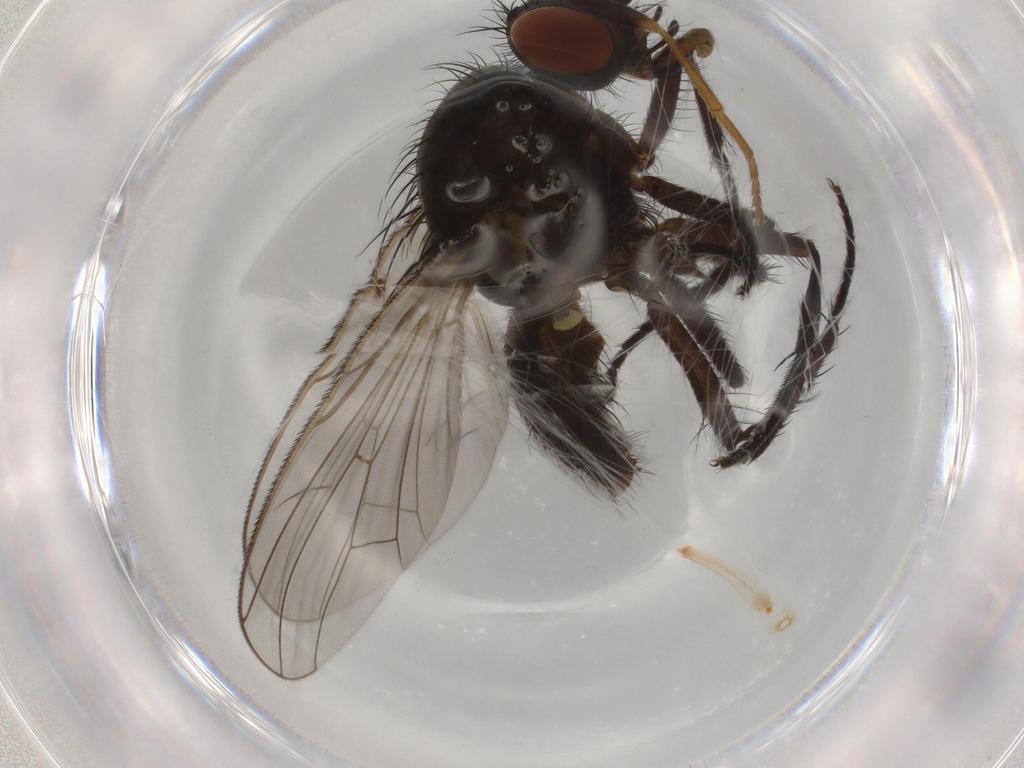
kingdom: Animalia
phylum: Arthropoda
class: Insecta
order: Diptera
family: Anthomyiidae
